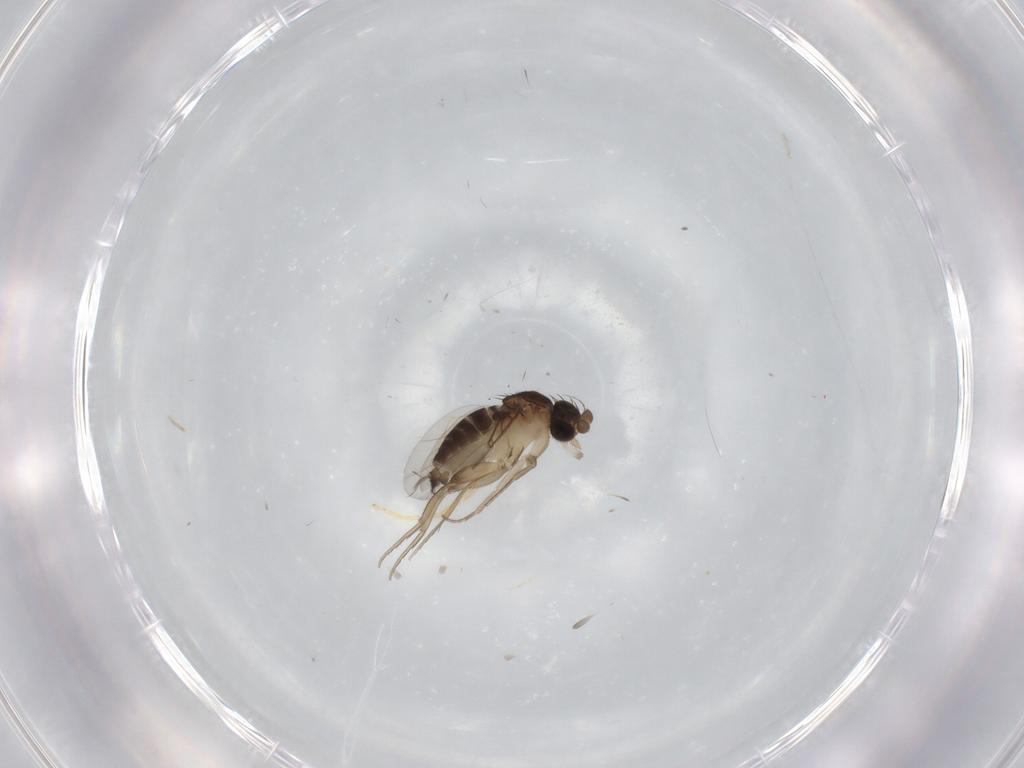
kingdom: Animalia
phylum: Arthropoda
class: Insecta
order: Diptera
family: Phoridae
